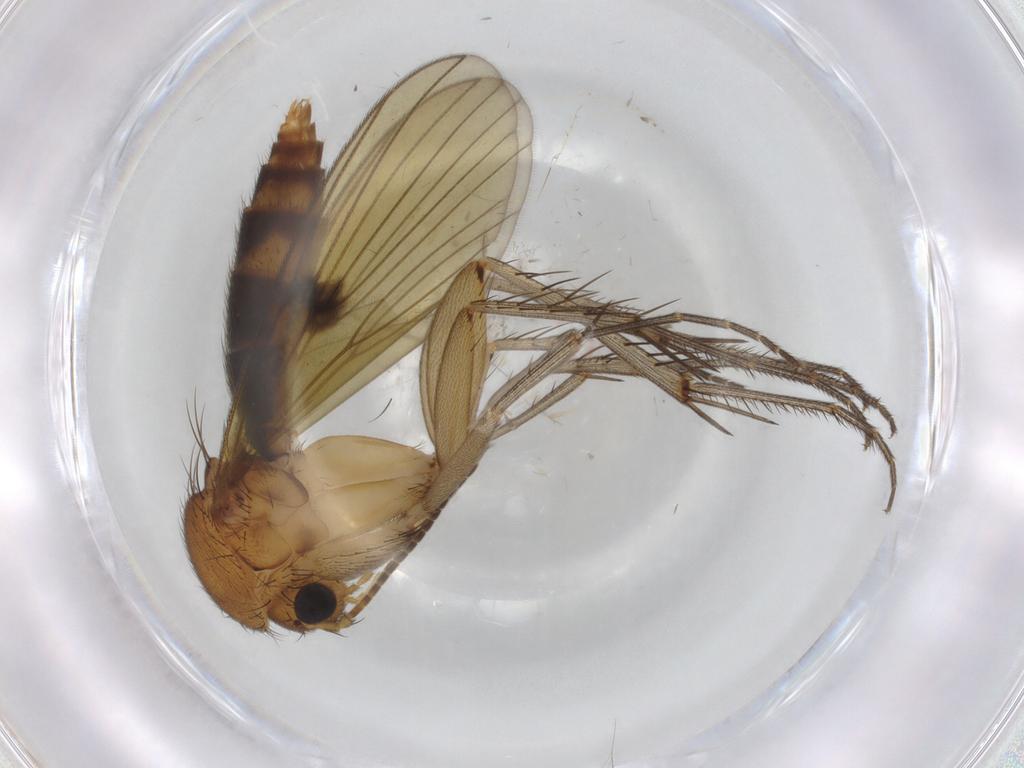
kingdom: Animalia
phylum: Arthropoda
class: Insecta
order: Diptera
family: Mycetophilidae
